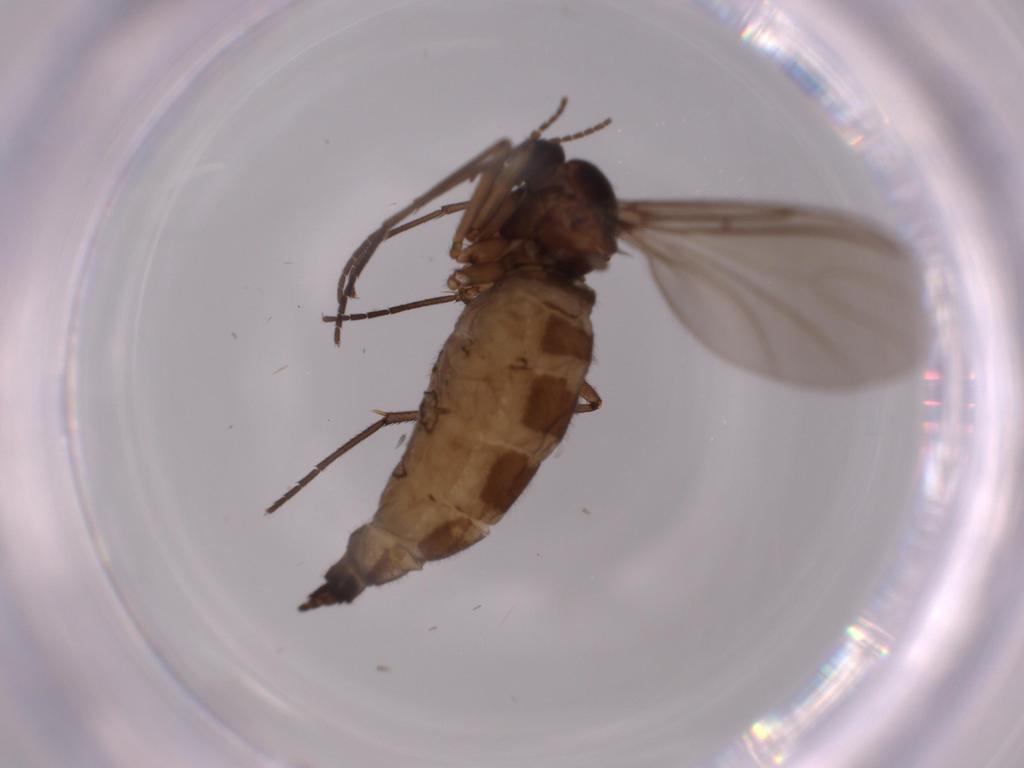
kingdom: Animalia
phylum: Arthropoda
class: Insecta
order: Diptera
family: Sciaridae
